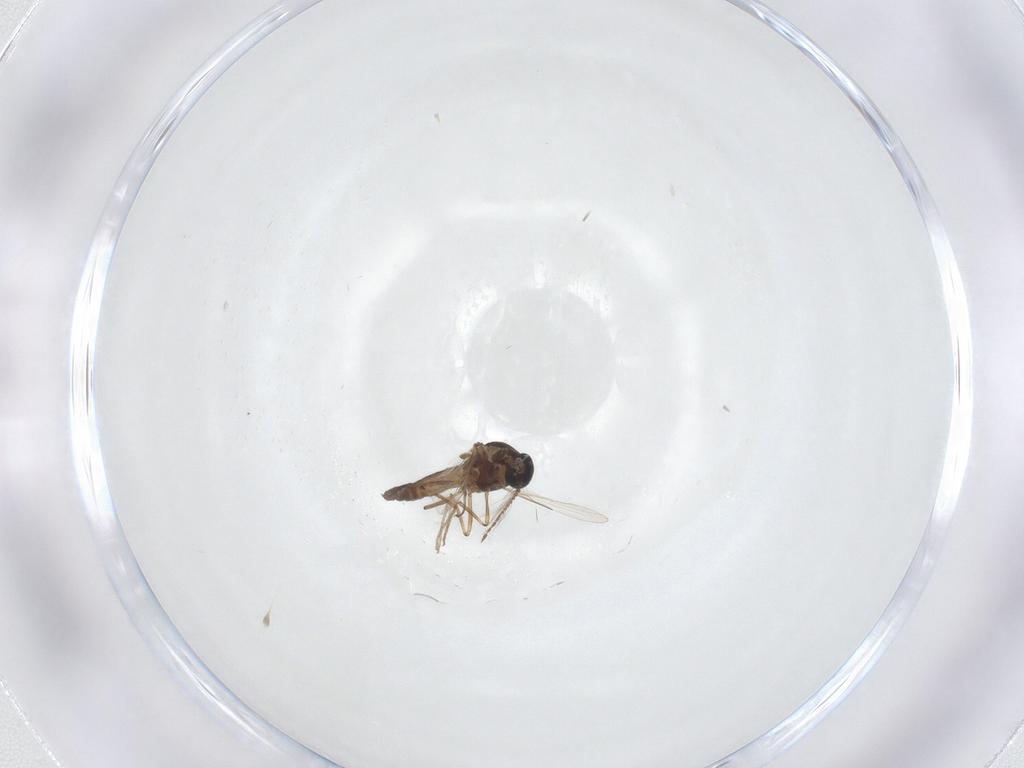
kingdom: Animalia
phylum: Arthropoda
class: Insecta
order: Diptera
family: Ceratopogonidae
